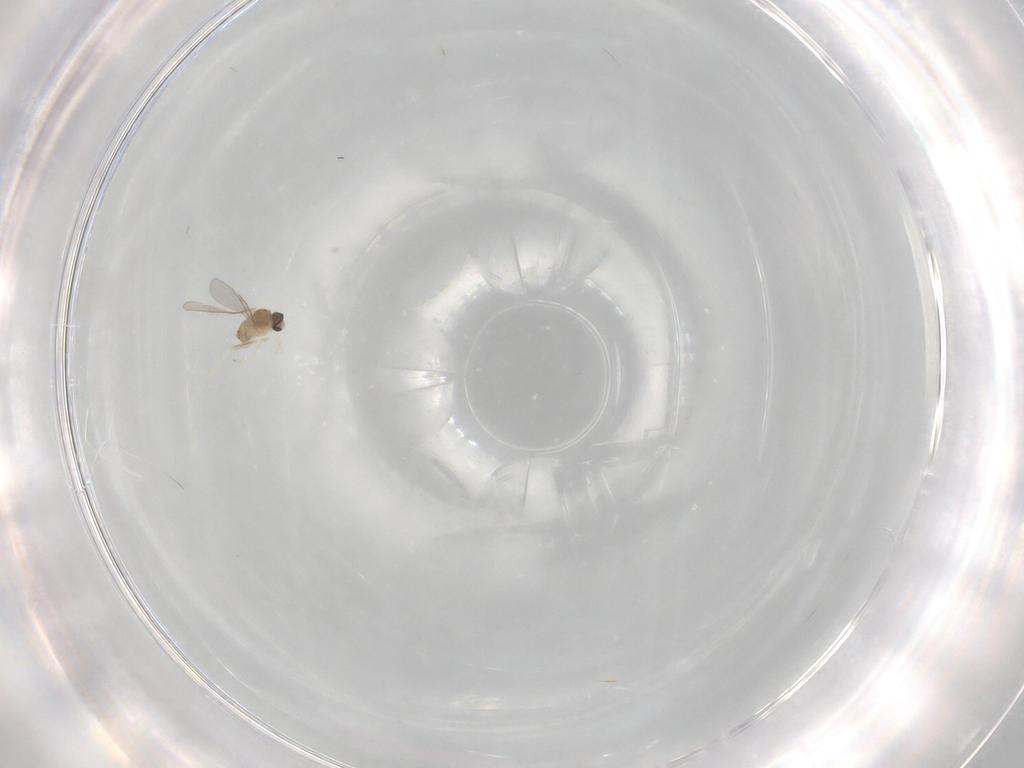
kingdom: Animalia
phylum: Arthropoda
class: Insecta
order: Diptera
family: Cecidomyiidae
